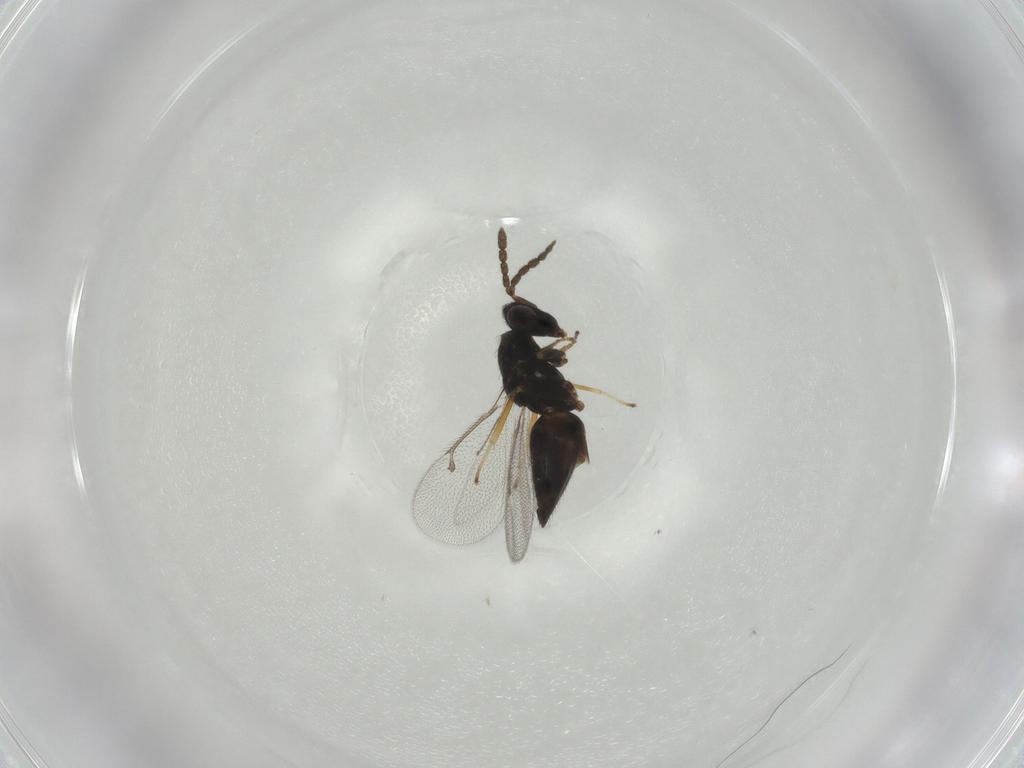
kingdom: Animalia
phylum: Arthropoda
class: Insecta
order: Hymenoptera
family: Eulophidae
